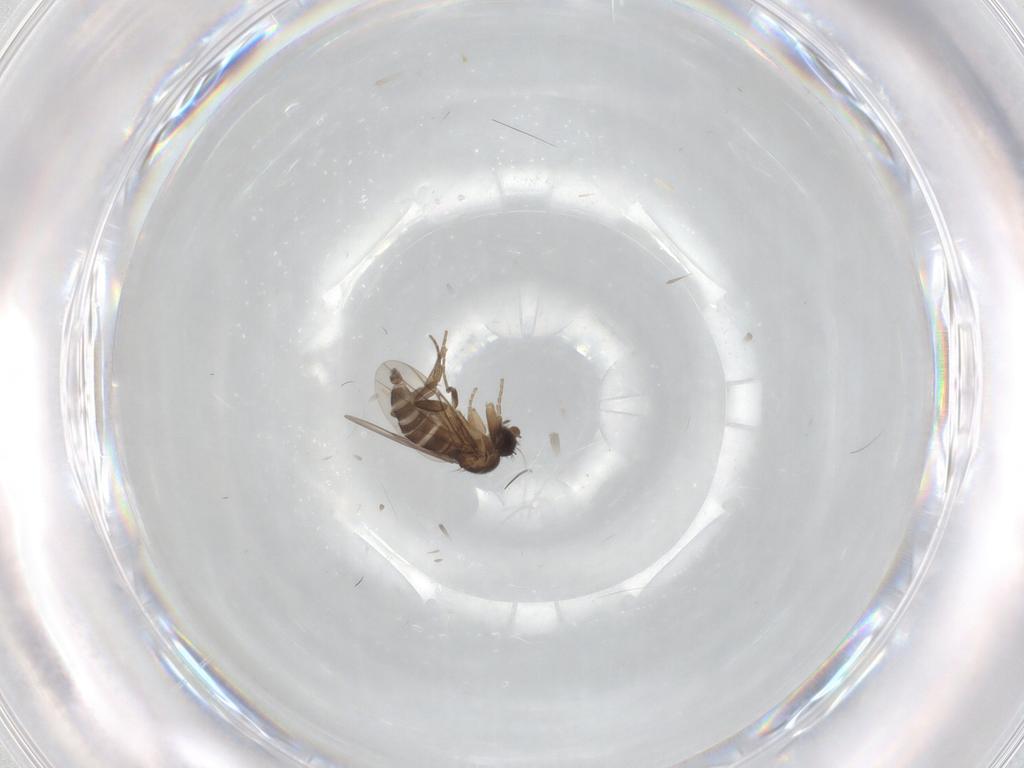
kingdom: Animalia
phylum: Arthropoda
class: Insecta
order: Diptera
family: Phoridae
